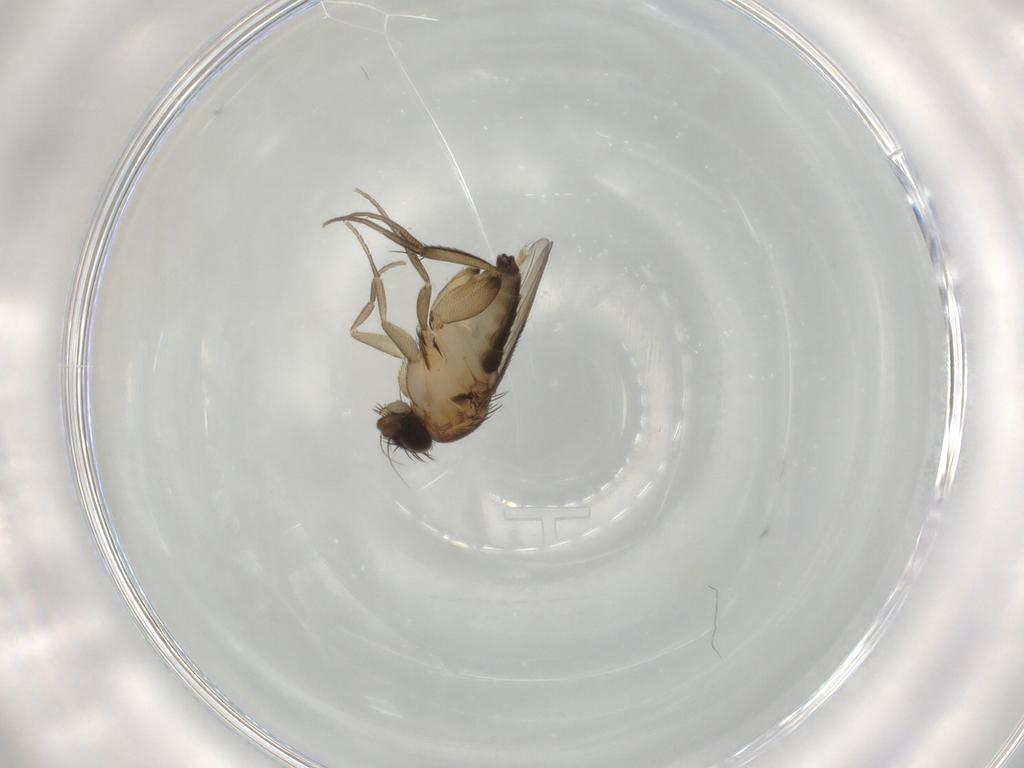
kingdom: Animalia
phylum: Arthropoda
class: Insecta
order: Diptera
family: Phoridae
